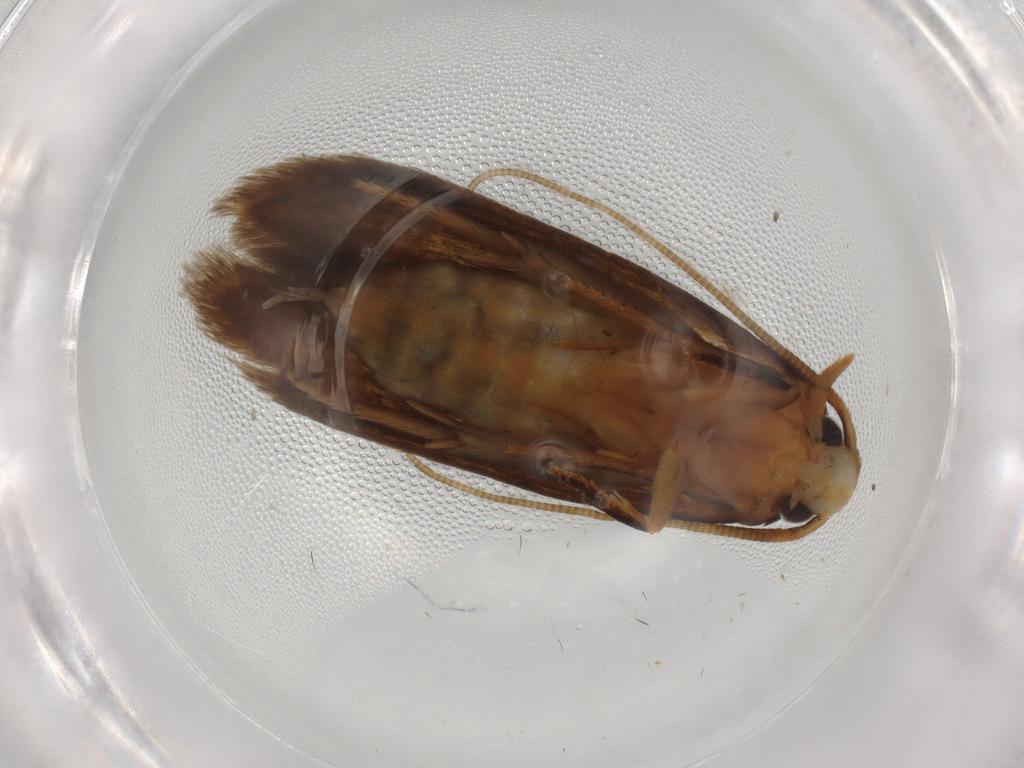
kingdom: Animalia
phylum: Arthropoda
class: Insecta
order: Lepidoptera
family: Tineidae
